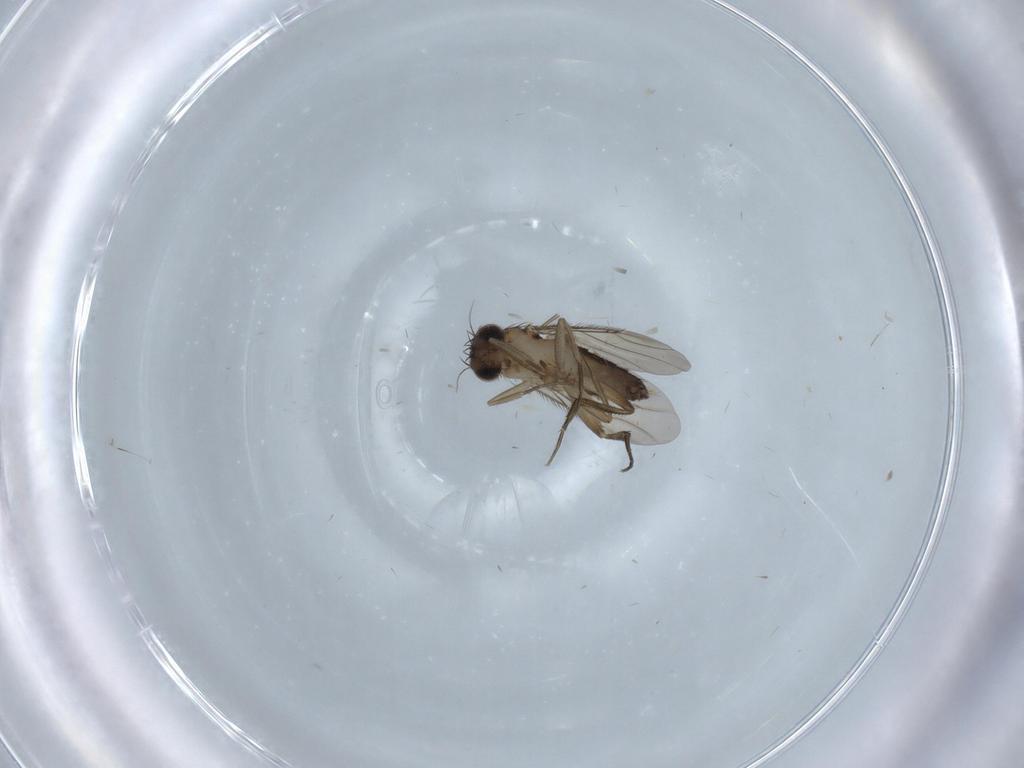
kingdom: Animalia
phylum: Arthropoda
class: Insecta
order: Diptera
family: Phoridae
